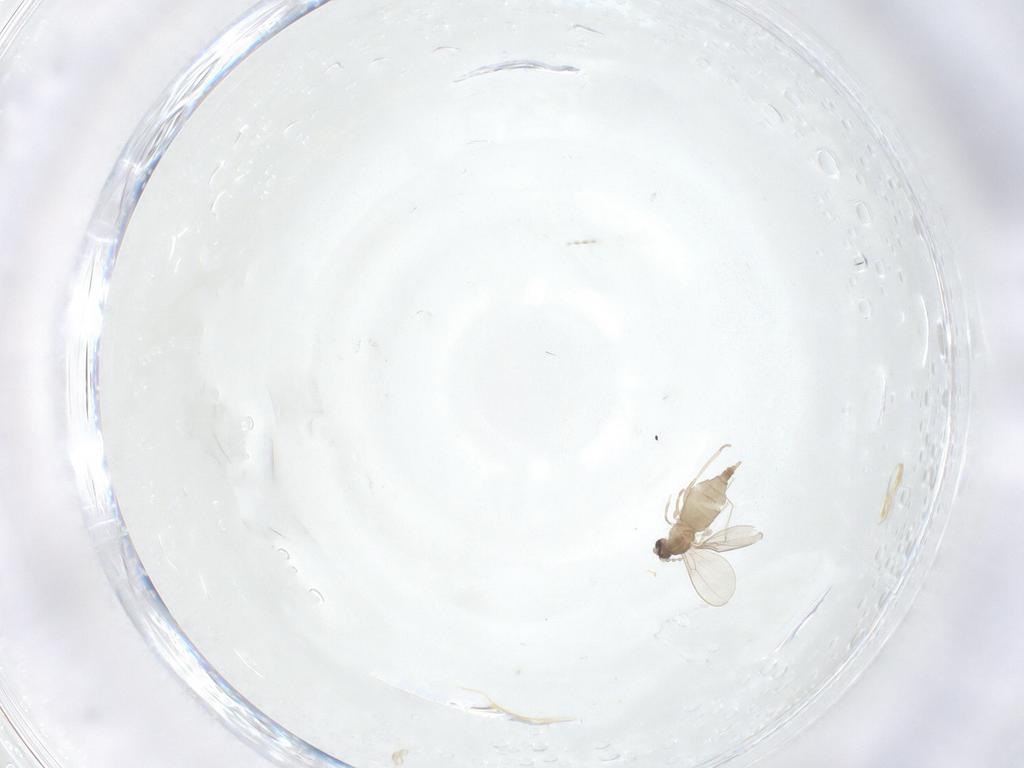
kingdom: Animalia
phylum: Arthropoda
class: Insecta
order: Diptera
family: Cecidomyiidae
